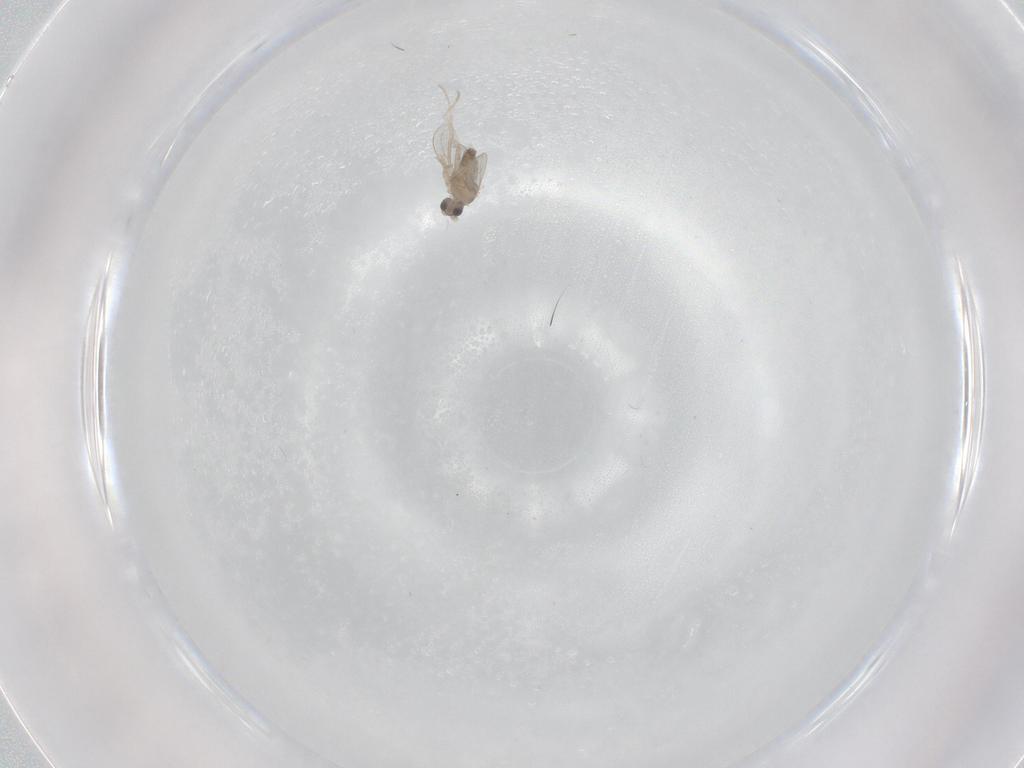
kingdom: Animalia
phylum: Arthropoda
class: Insecta
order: Diptera
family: Cecidomyiidae
